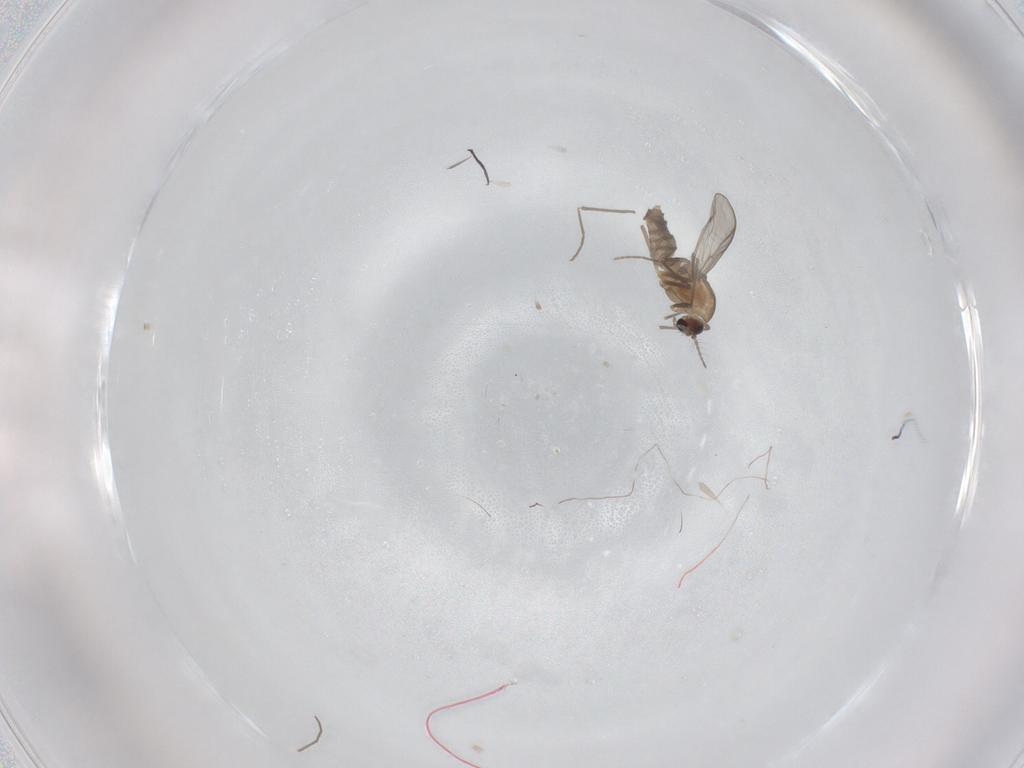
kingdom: Animalia
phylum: Arthropoda
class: Insecta
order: Diptera
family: Chironomidae
